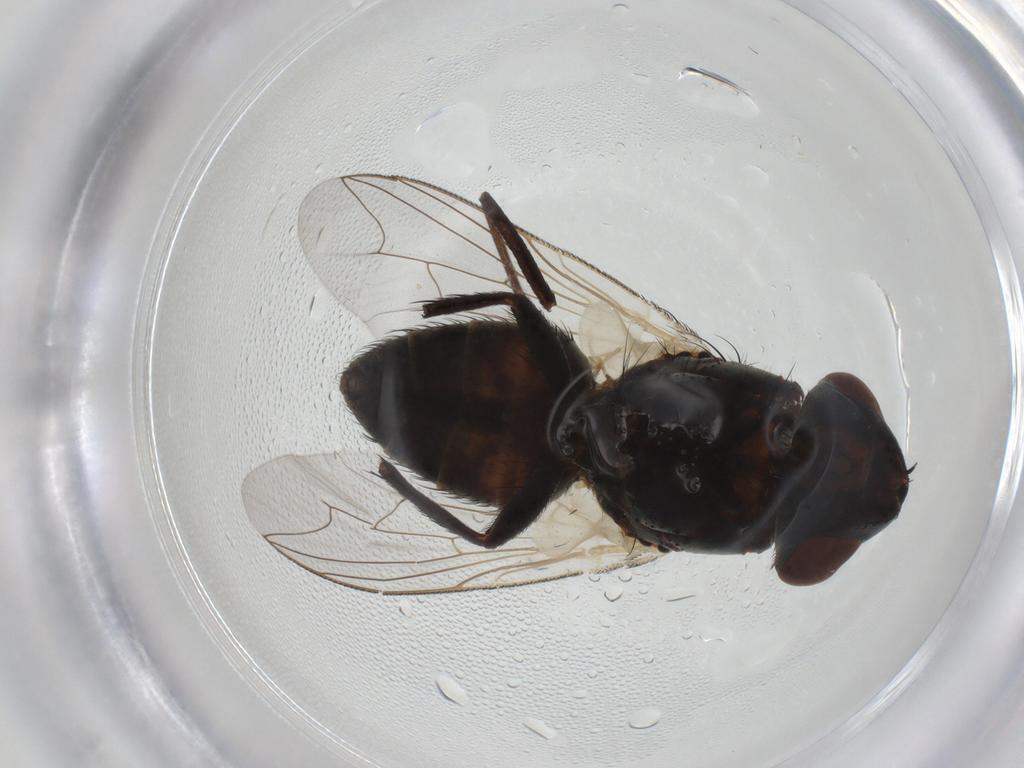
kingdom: Animalia
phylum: Arthropoda
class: Insecta
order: Diptera
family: Sarcophagidae
